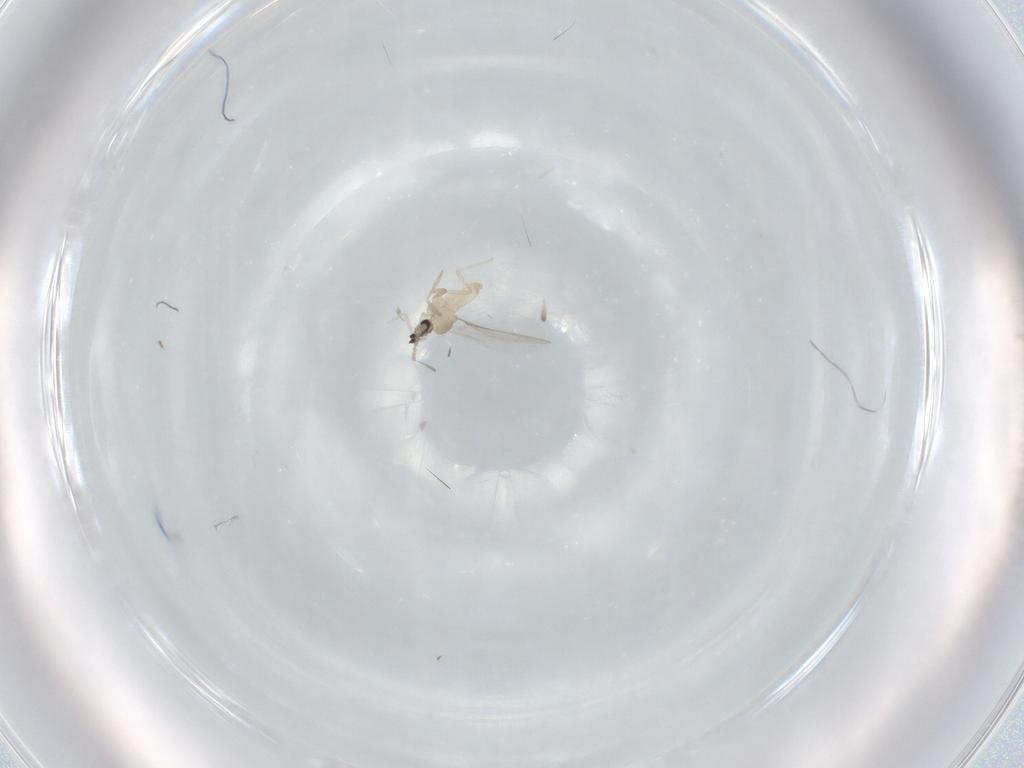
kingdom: Animalia
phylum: Arthropoda
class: Insecta
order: Diptera
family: Cecidomyiidae
